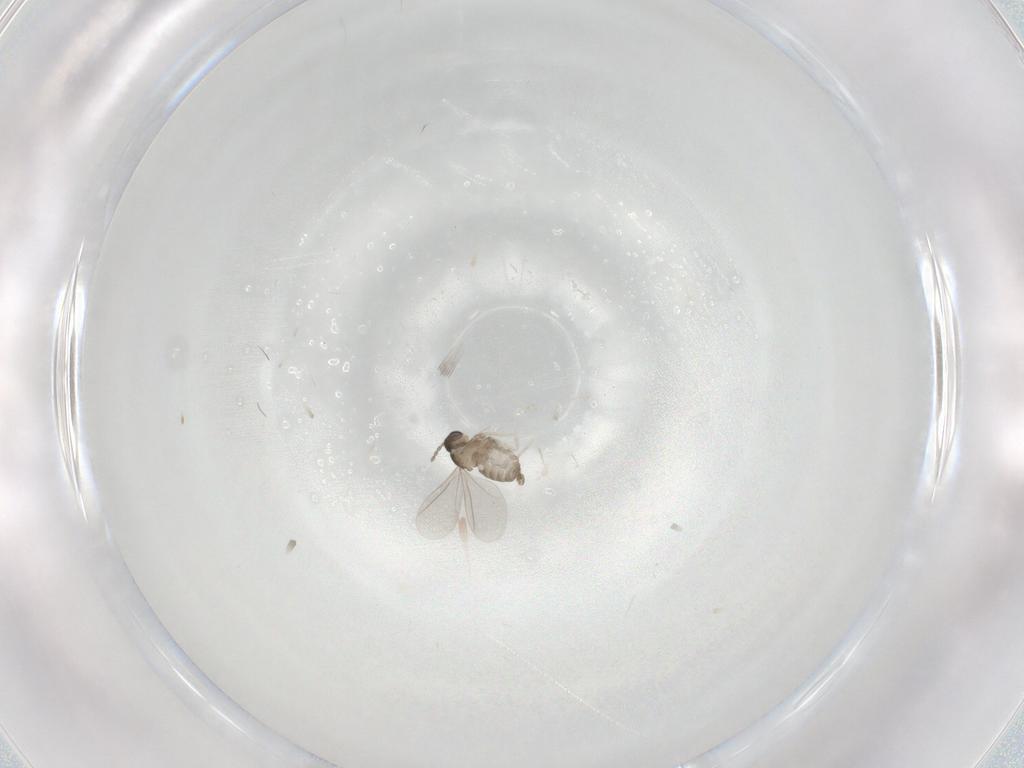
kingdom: Animalia
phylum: Arthropoda
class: Insecta
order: Diptera
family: Cecidomyiidae
